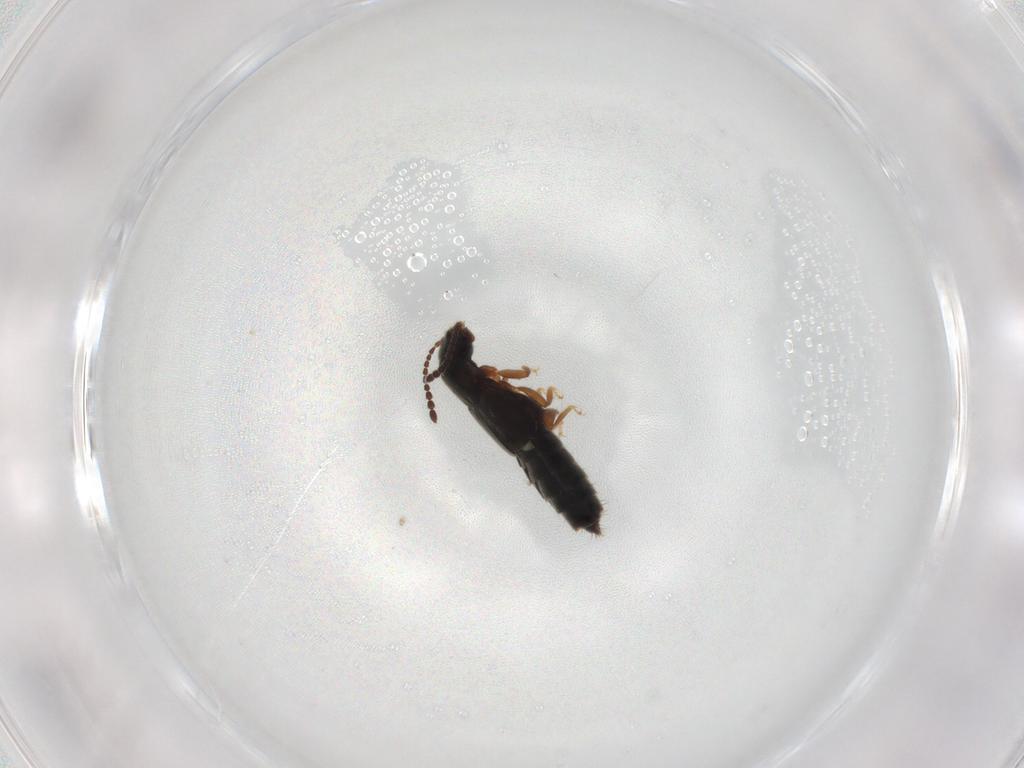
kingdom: Animalia
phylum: Arthropoda
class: Insecta
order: Coleoptera
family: Staphylinidae
